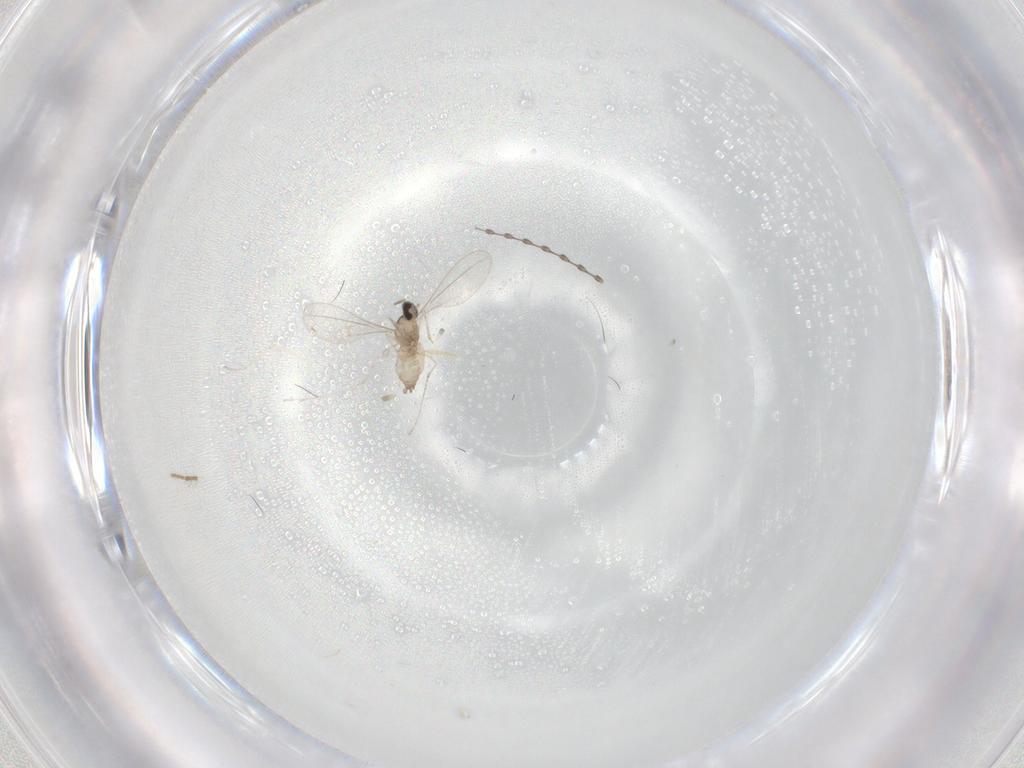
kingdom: Animalia
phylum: Arthropoda
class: Insecta
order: Diptera
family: Cecidomyiidae
